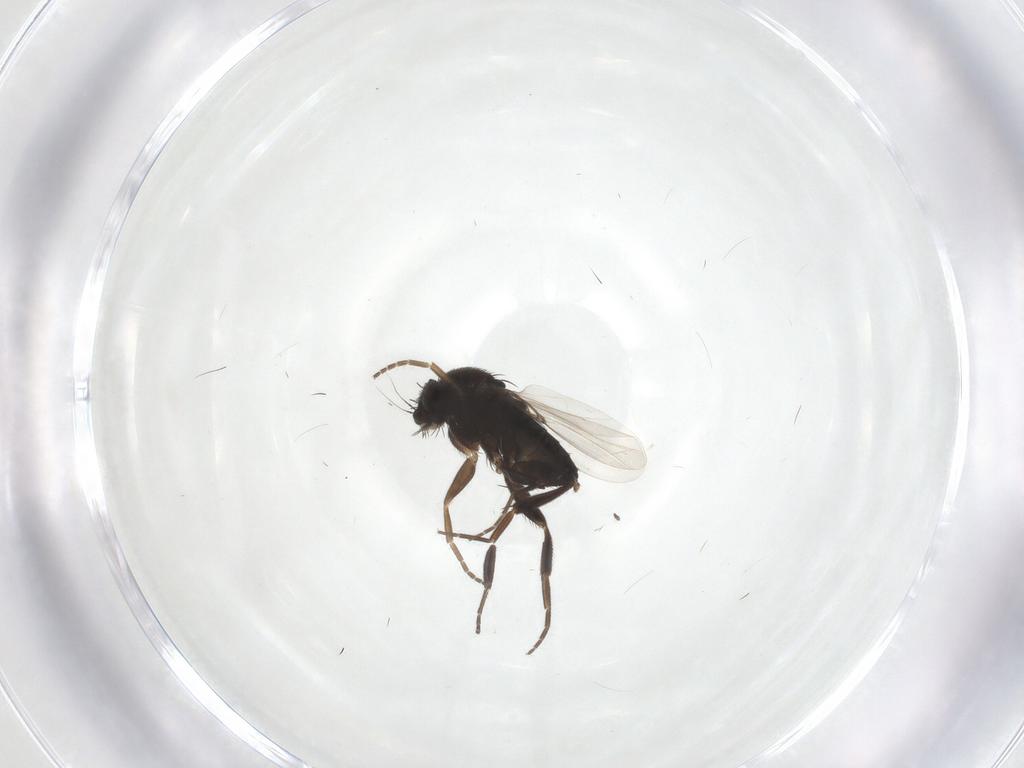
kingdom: Animalia
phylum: Arthropoda
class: Insecta
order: Diptera
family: Phoridae
